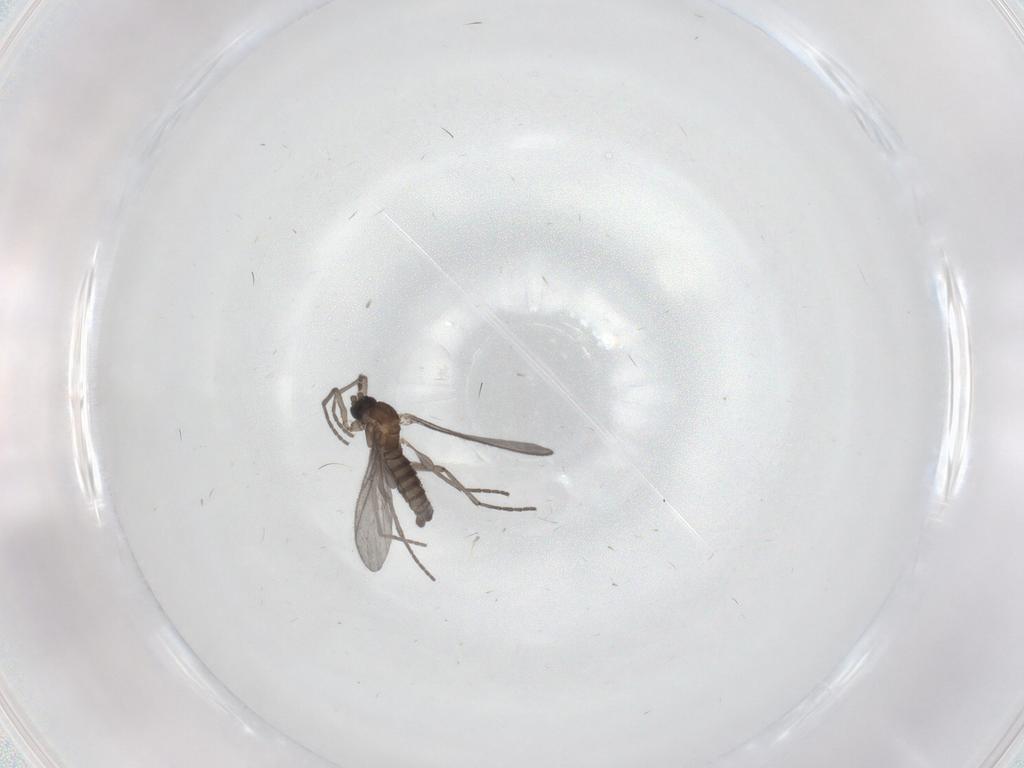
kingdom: Animalia
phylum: Arthropoda
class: Insecta
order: Diptera
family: Sciaridae
